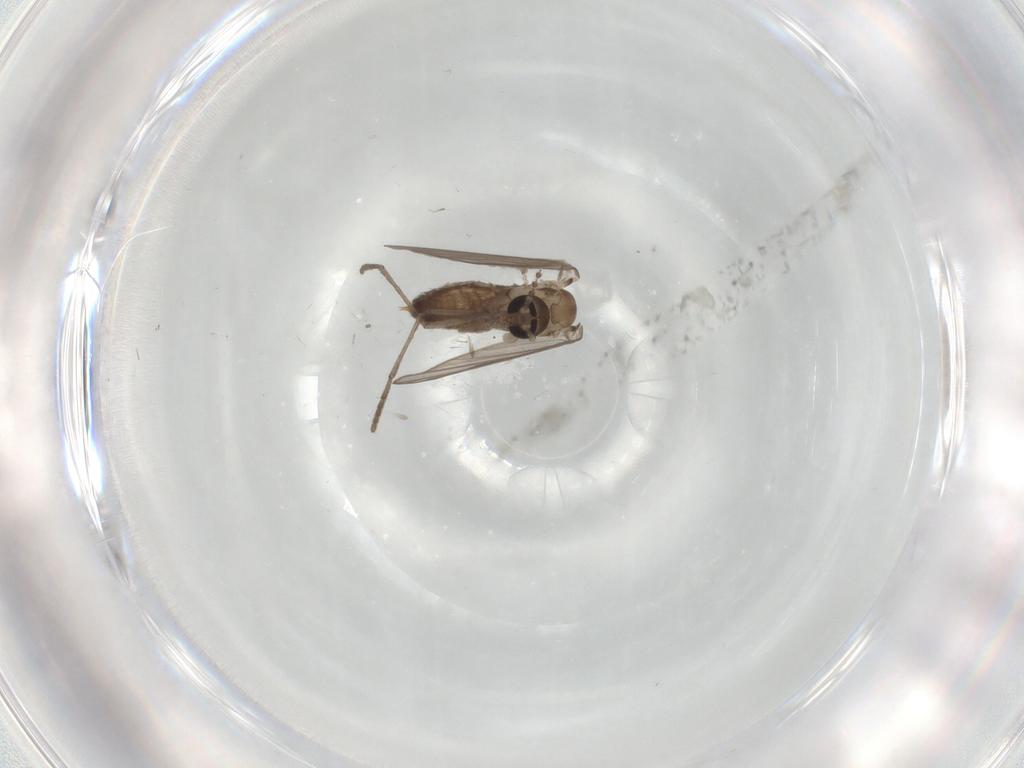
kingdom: Animalia
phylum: Arthropoda
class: Insecta
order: Diptera
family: Psychodidae
